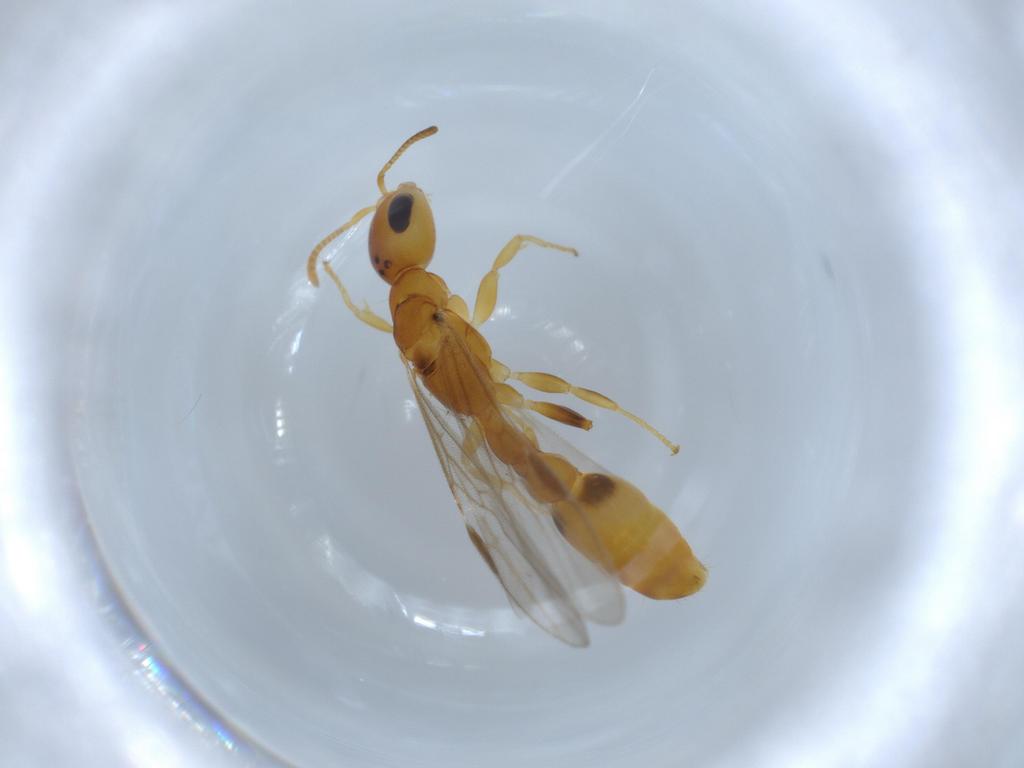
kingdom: Animalia
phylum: Arthropoda
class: Insecta
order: Hymenoptera
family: Formicidae
